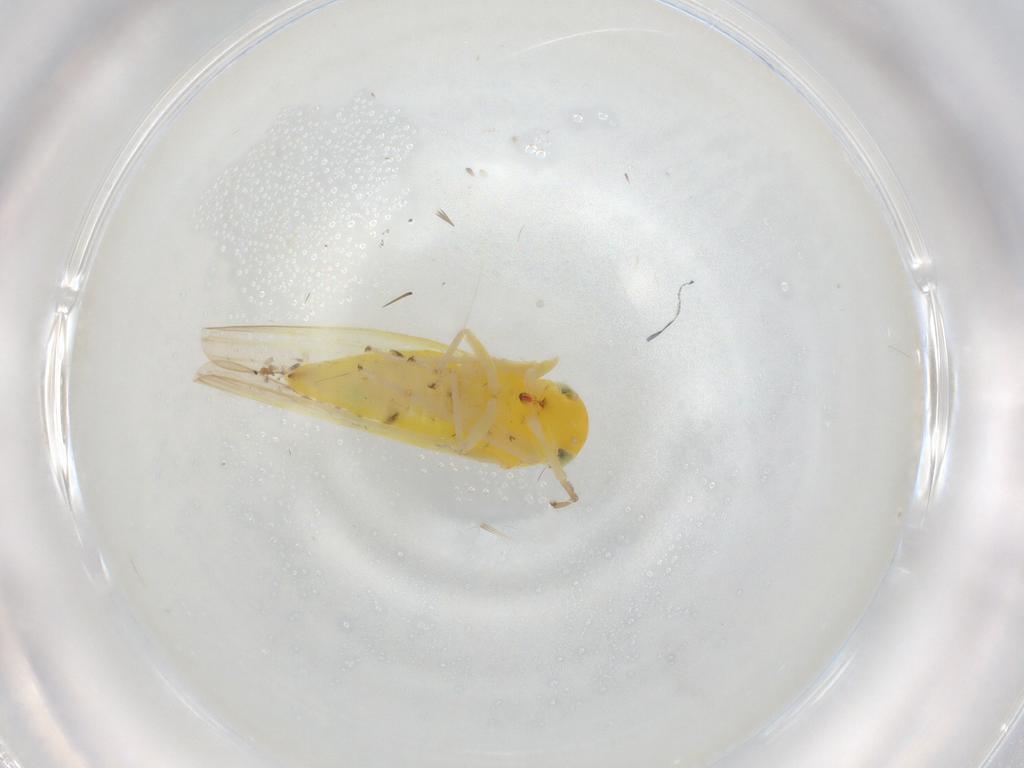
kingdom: Animalia
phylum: Arthropoda
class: Insecta
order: Hemiptera
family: Cicadellidae
